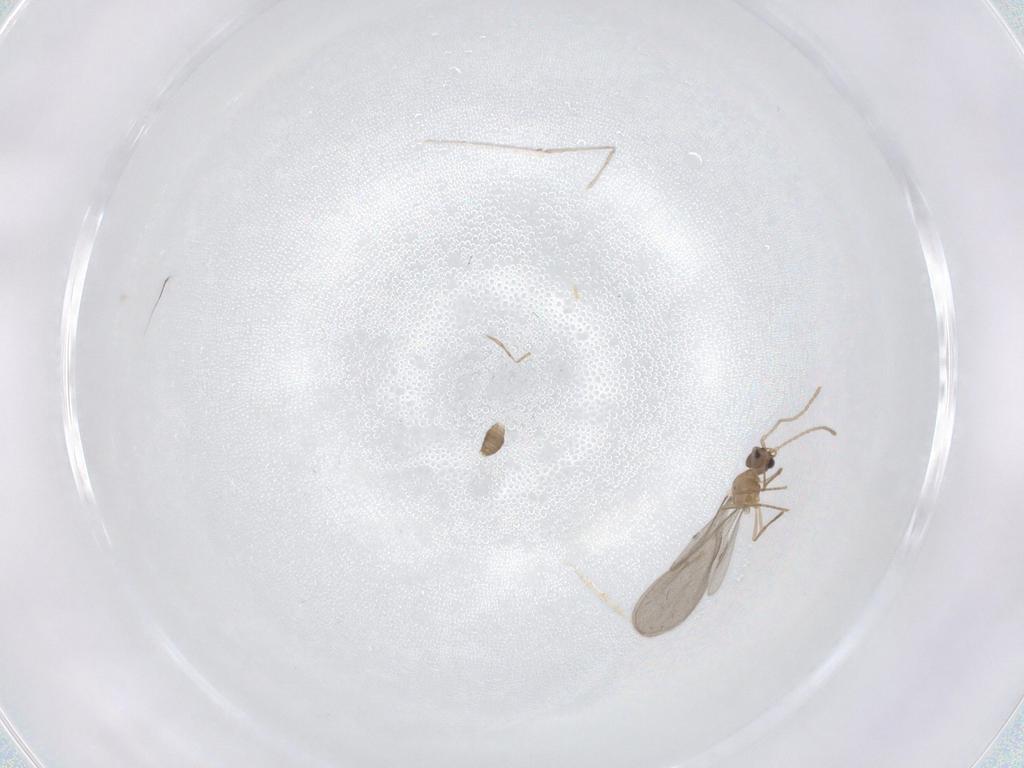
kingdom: Animalia
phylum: Arthropoda
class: Insecta
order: Hymenoptera
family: Formicidae
